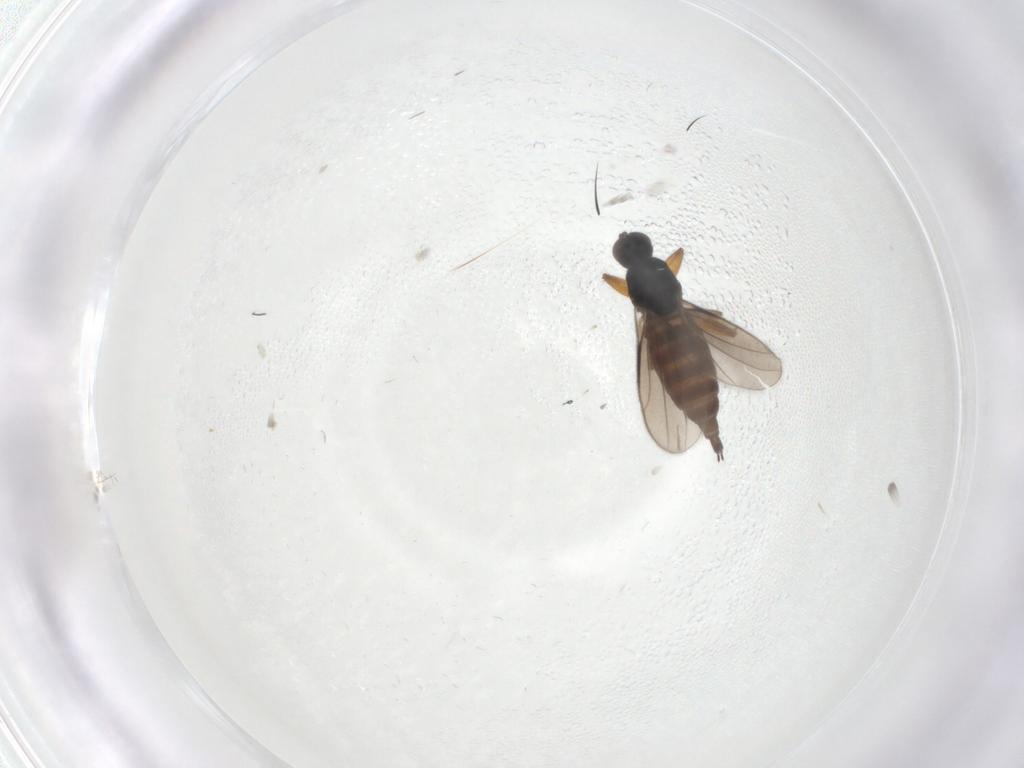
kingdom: Animalia
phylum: Arthropoda
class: Insecta
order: Diptera
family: Hybotidae
